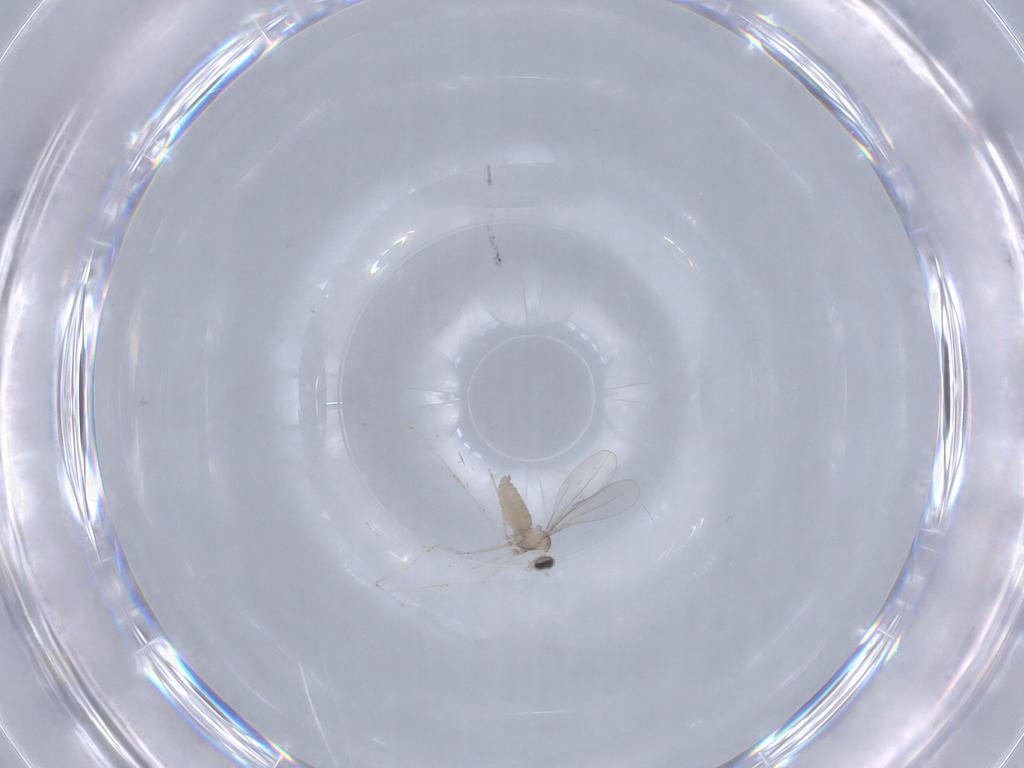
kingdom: Animalia
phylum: Arthropoda
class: Insecta
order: Diptera
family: Cecidomyiidae
